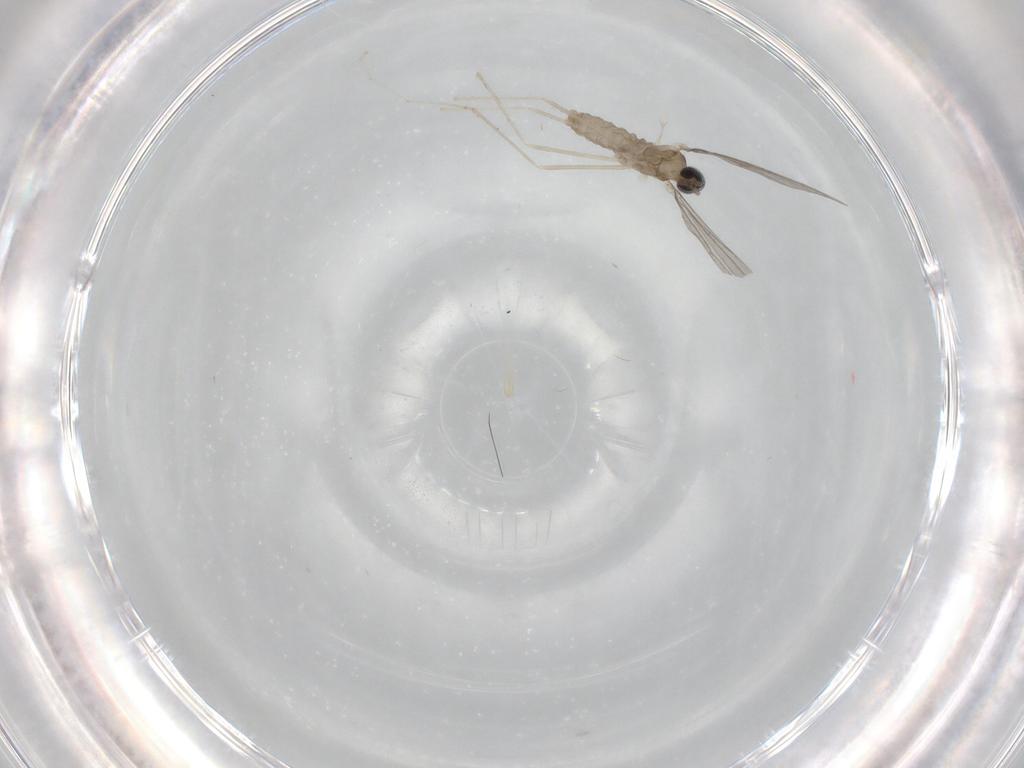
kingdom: Animalia
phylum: Arthropoda
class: Insecta
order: Diptera
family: Cecidomyiidae
